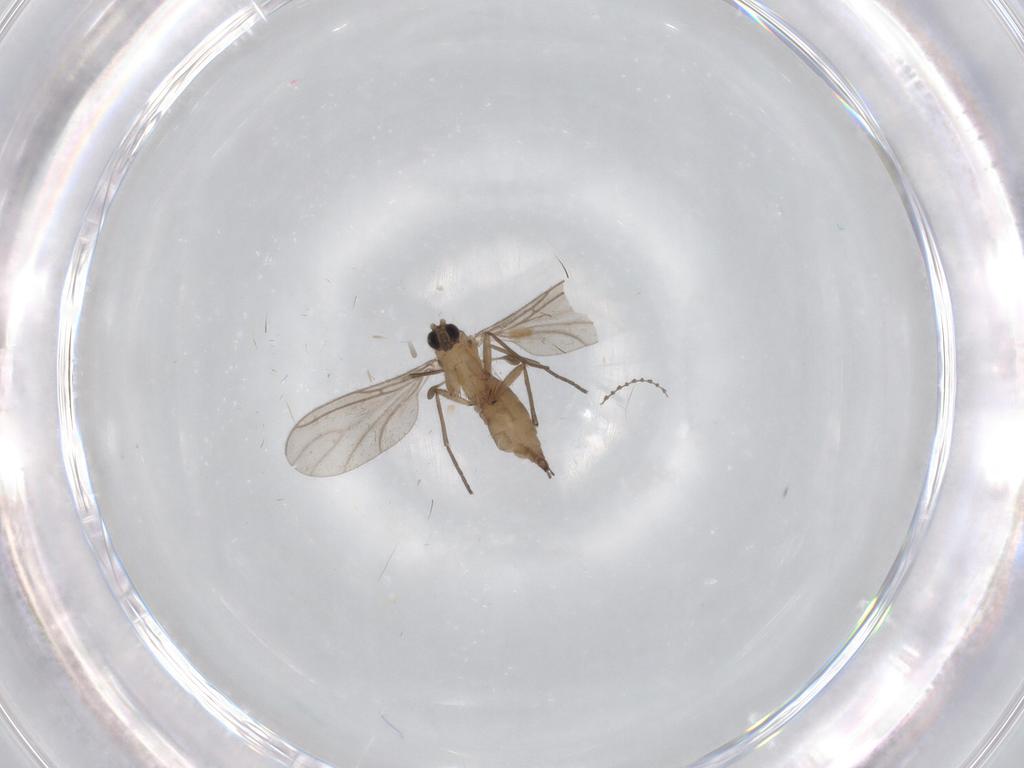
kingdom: Animalia
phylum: Arthropoda
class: Insecta
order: Diptera
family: Sciaridae
